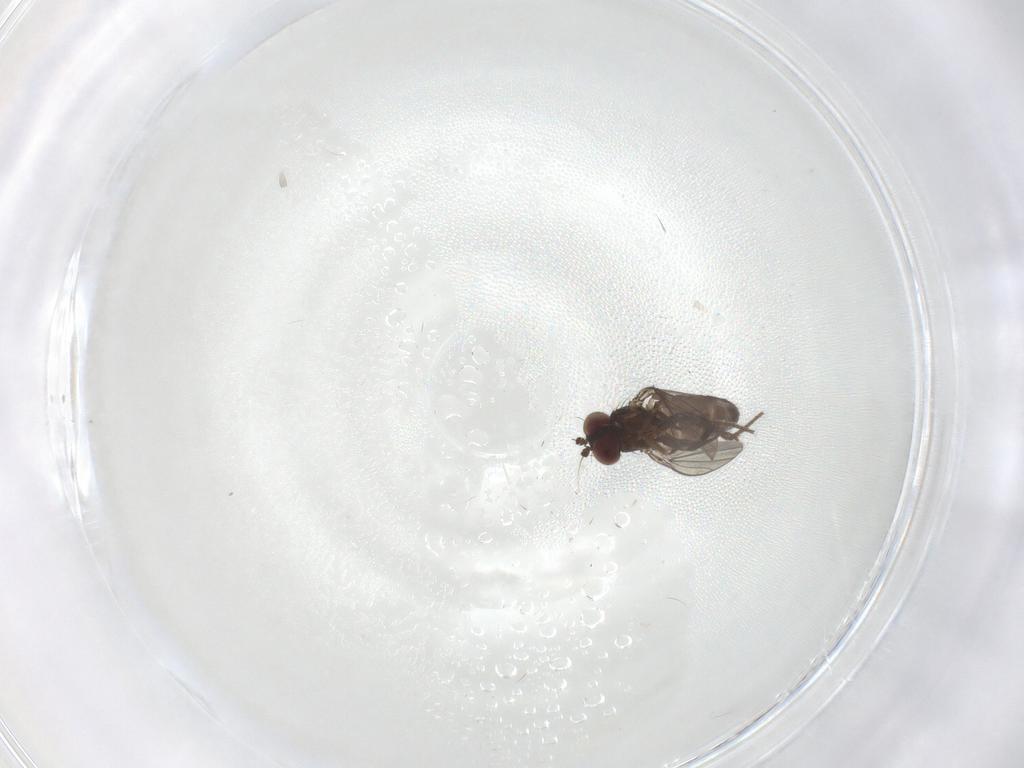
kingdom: Animalia
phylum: Arthropoda
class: Insecta
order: Diptera
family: Dolichopodidae
